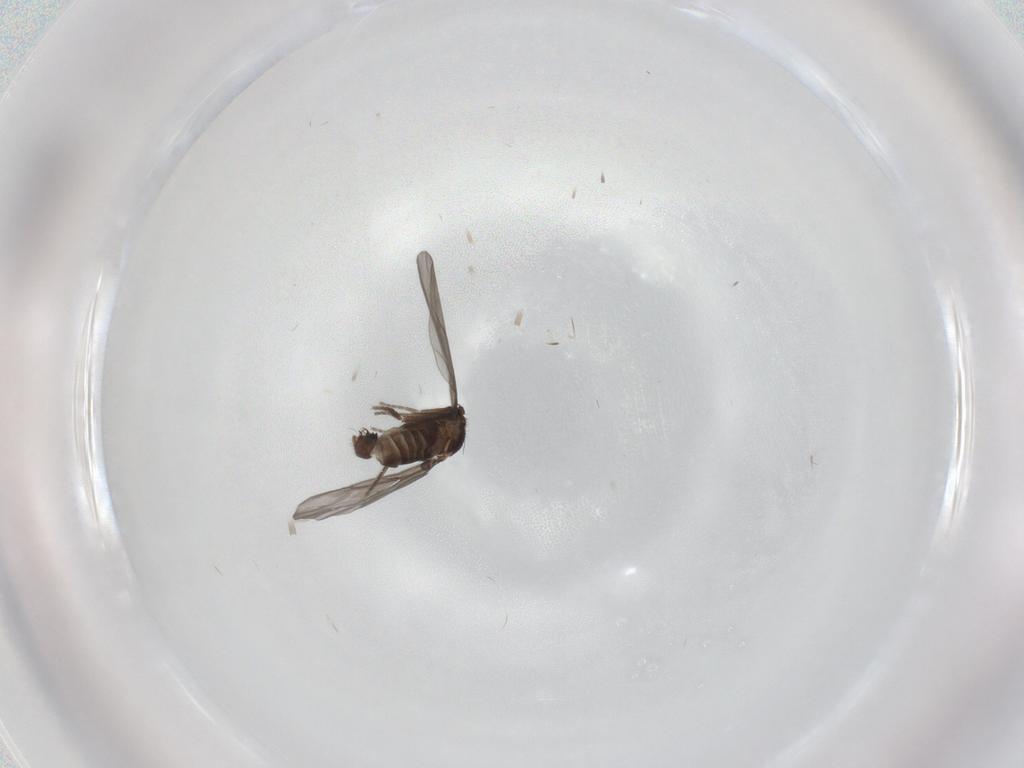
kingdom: Animalia
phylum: Arthropoda
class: Insecta
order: Diptera
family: Phoridae
